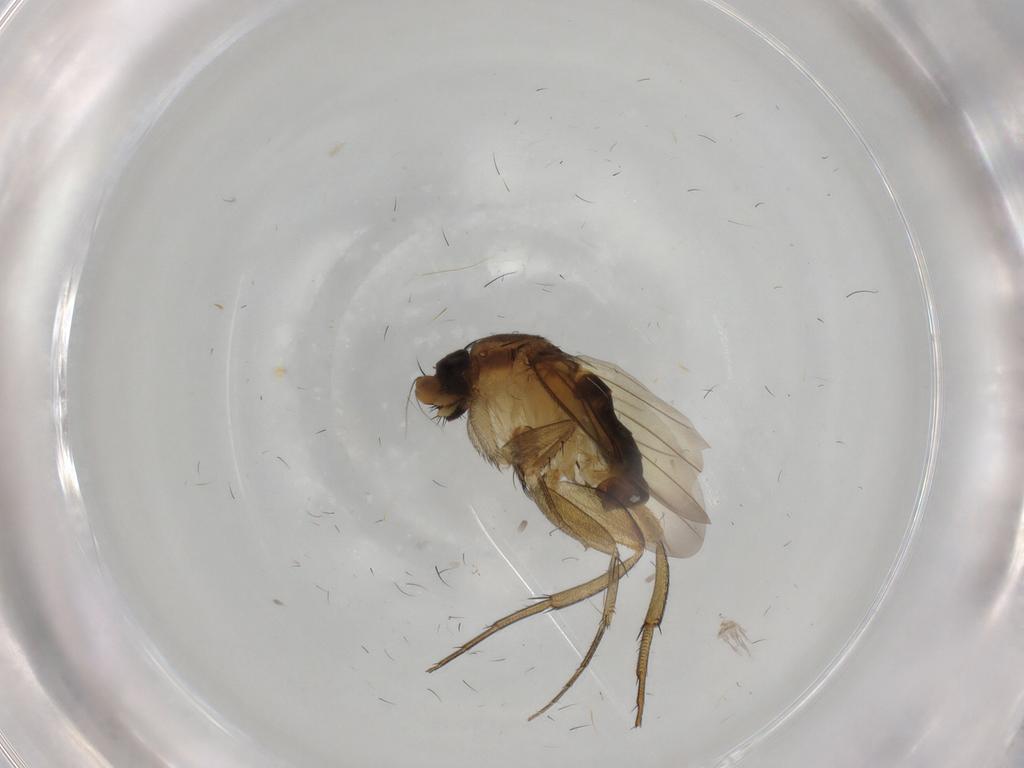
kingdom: Animalia
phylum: Arthropoda
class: Insecta
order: Diptera
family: Phoridae
